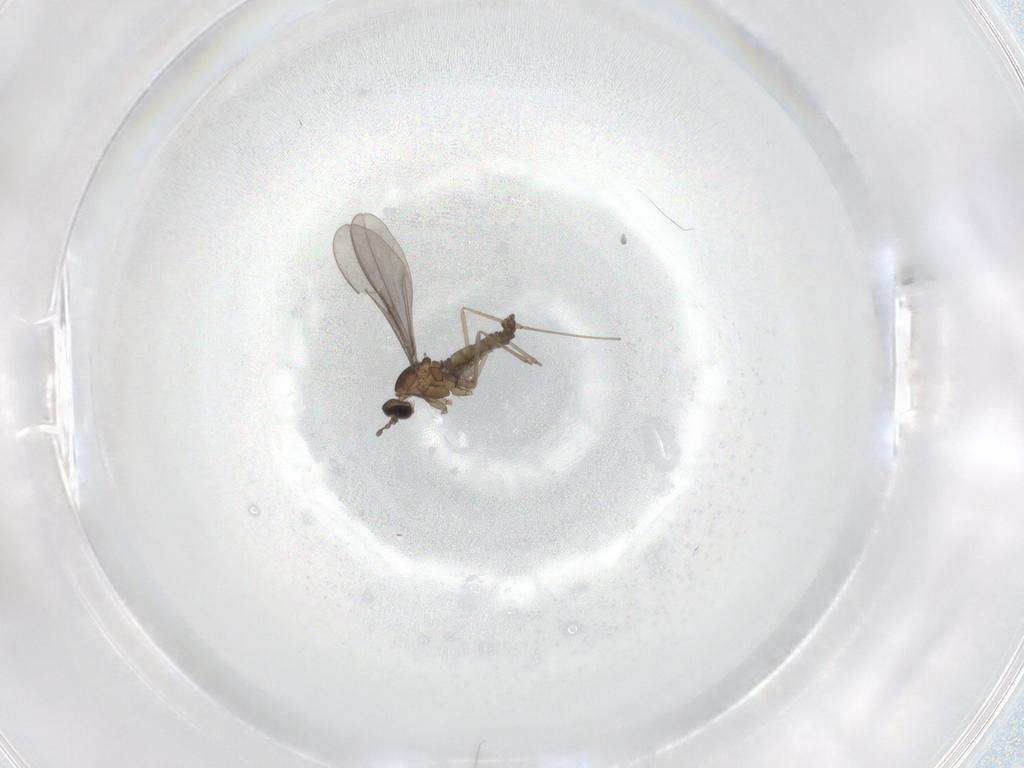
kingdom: Animalia
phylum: Arthropoda
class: Insecta
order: Diptera
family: Cecidomyiidae
